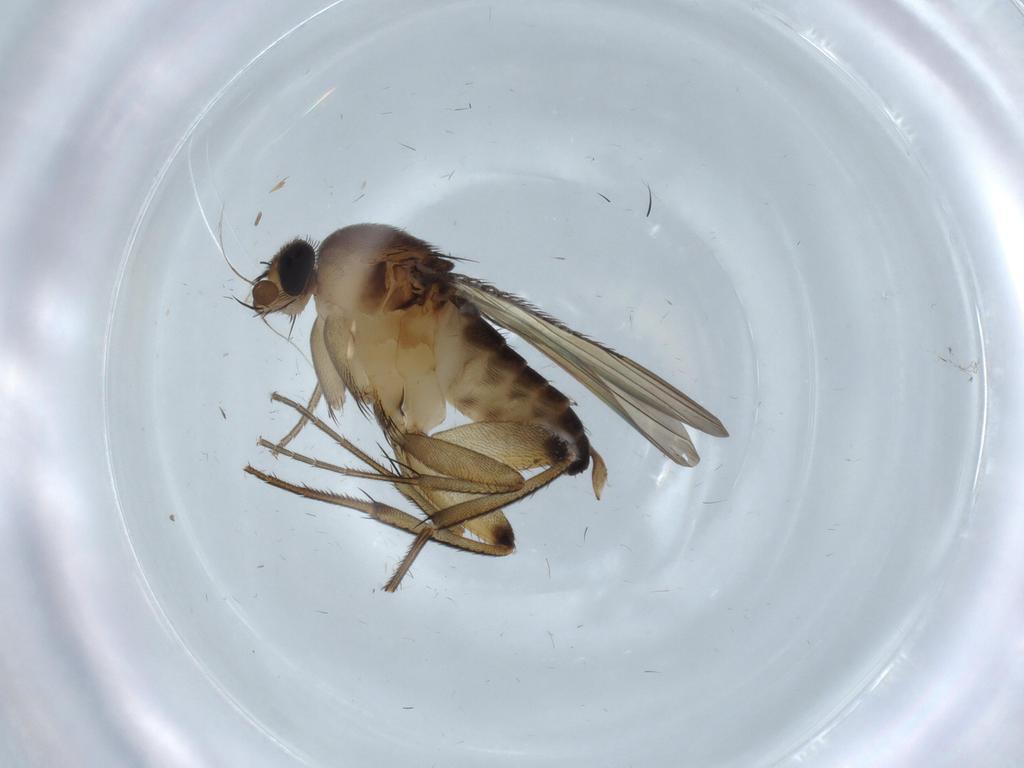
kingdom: Animalia
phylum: Arthropoda
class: Insecta
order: Diptera
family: Phoridae
